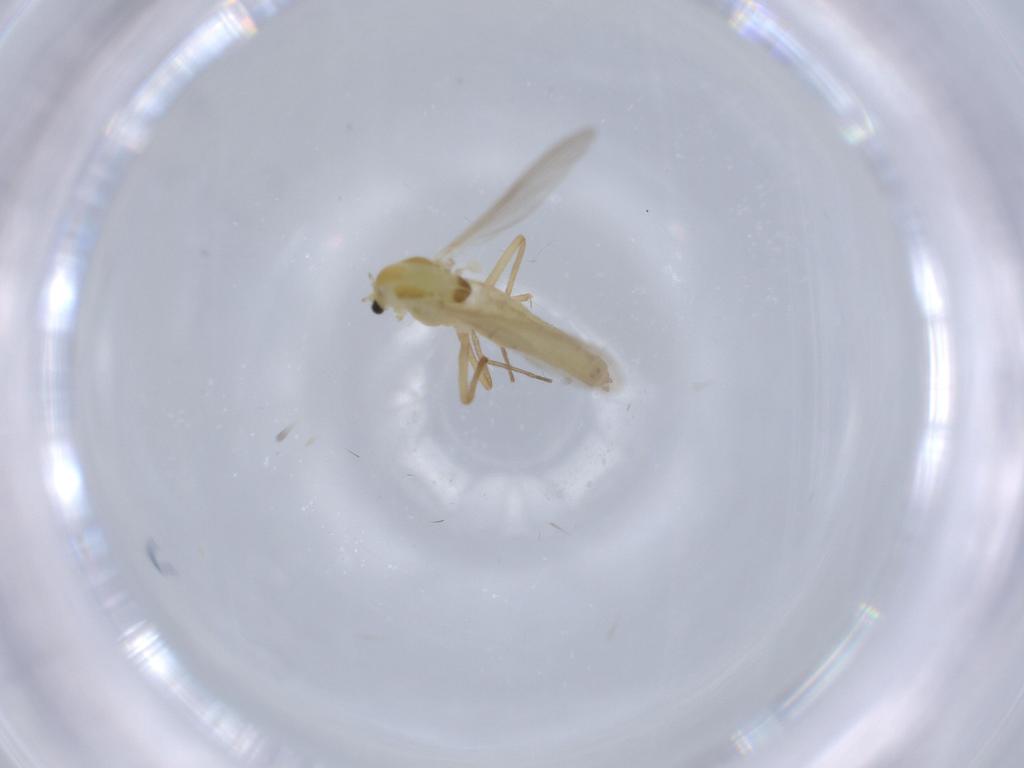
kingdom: Animalia
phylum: Arthropoda
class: Insecta
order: Diptera
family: Chironomidae
